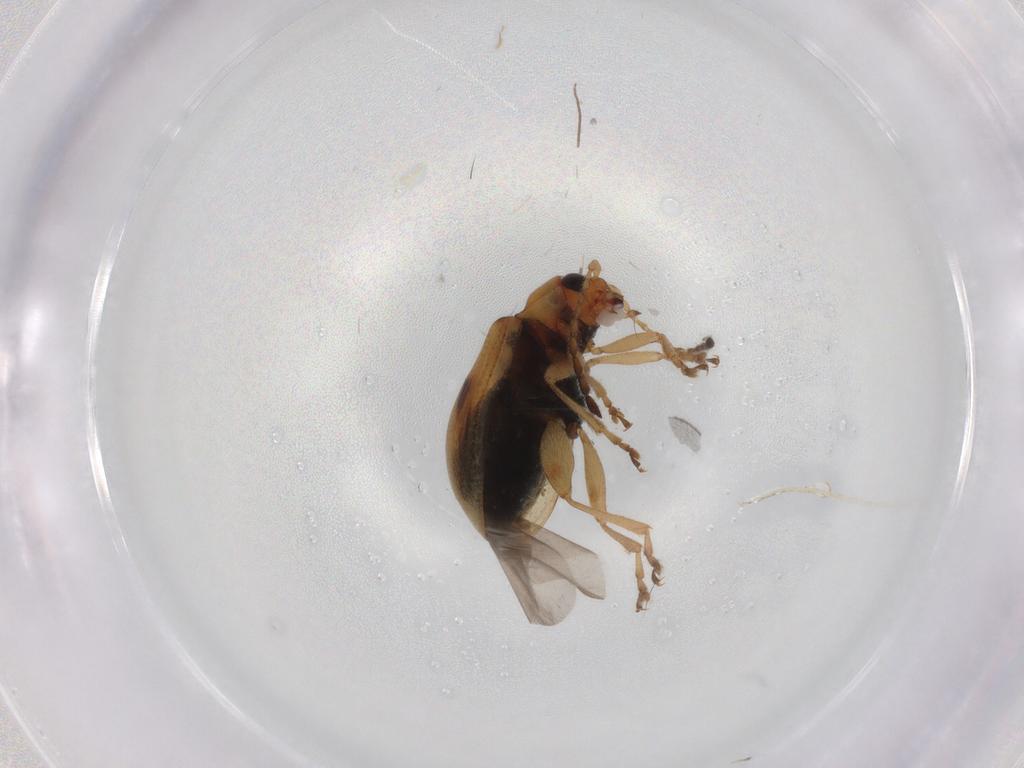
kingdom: Animalia
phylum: Arthropoda
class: Insecta
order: Coleoptera
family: Chrysomelidae
